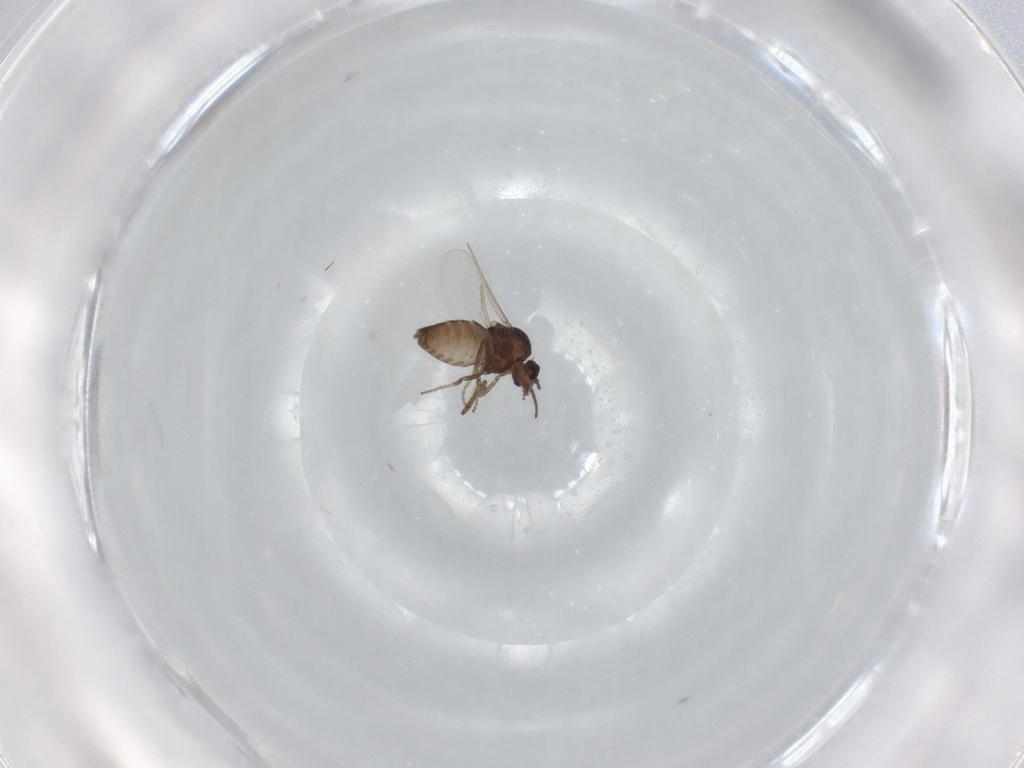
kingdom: Animalia
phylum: Arthropoda
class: Insecta
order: Diptera
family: Ceratopogonidae
